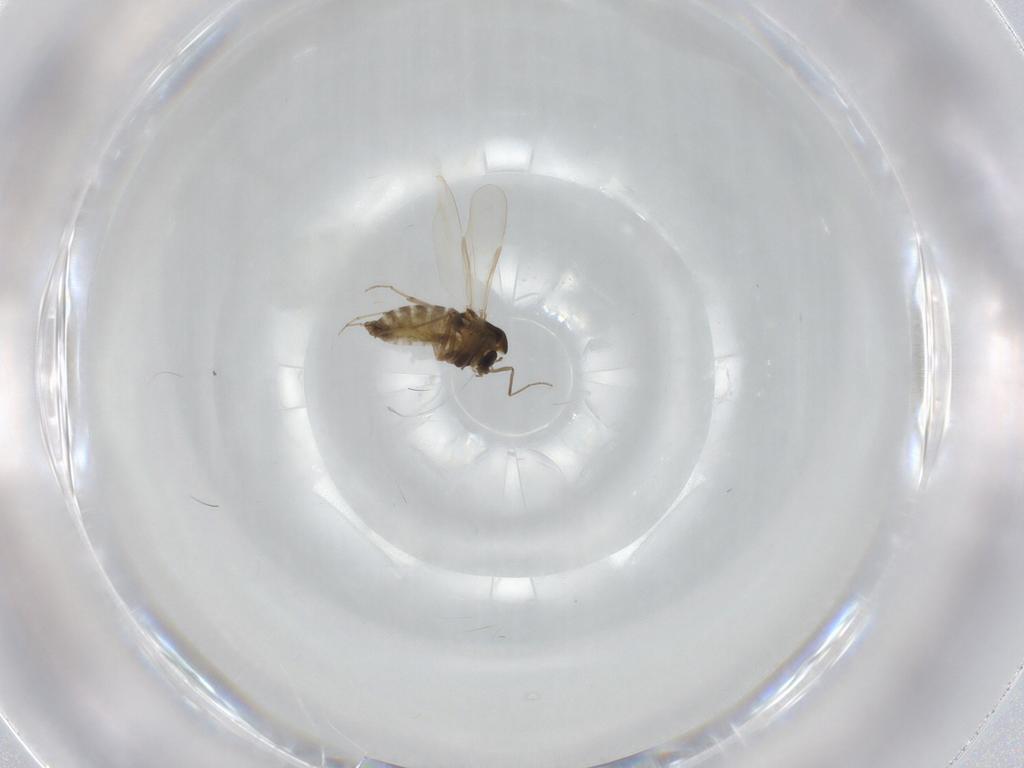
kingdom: Animalia
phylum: Arthropoda
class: Insecta
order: Diptera
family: Chironomidae
